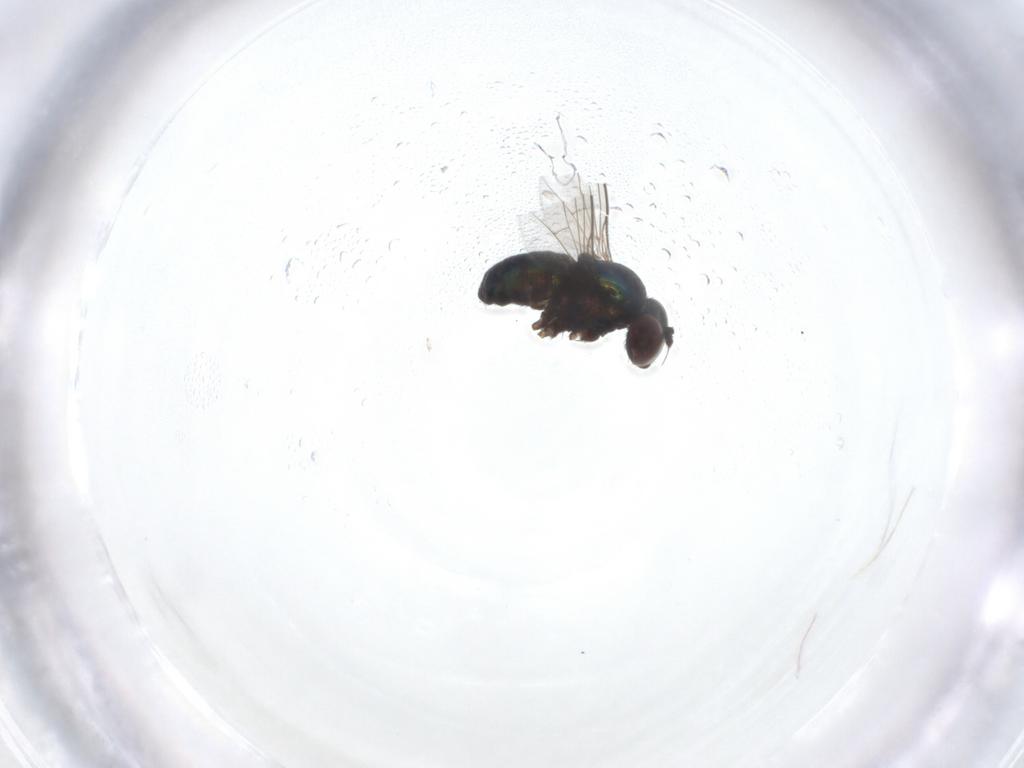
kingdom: Animalia
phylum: Arthropoda
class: Insecta
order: Diptera
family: Dolichopodidae
